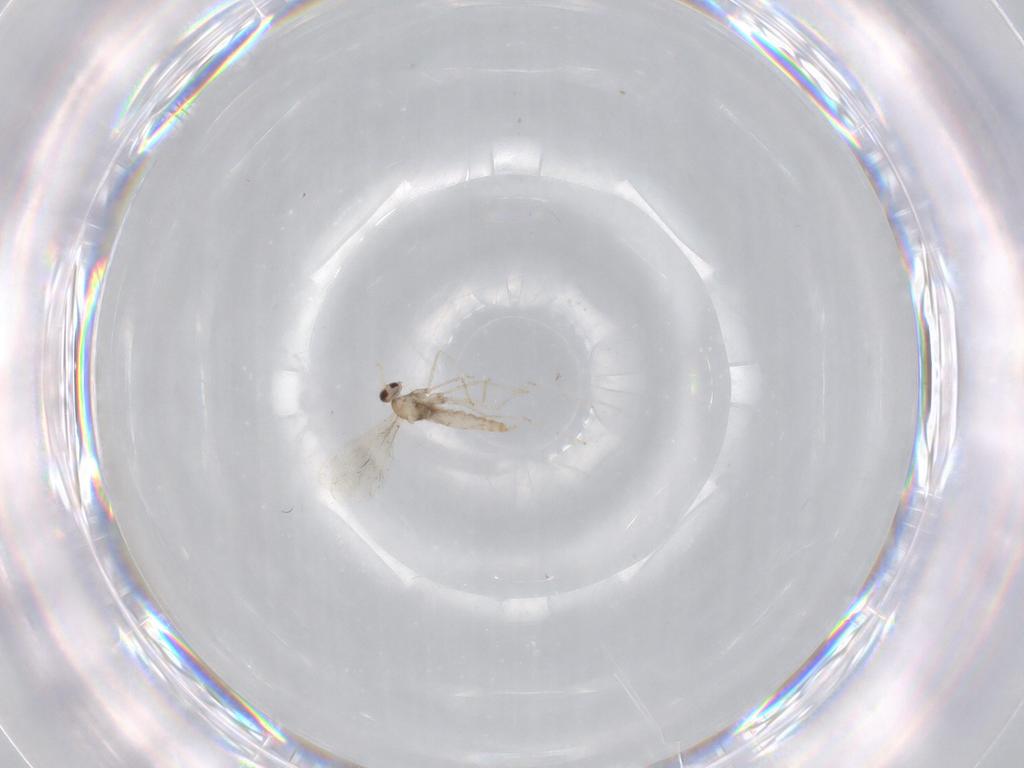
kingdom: Animalia
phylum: Arthropoda
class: Insecta
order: Diptera
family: Cecidomyiidae
